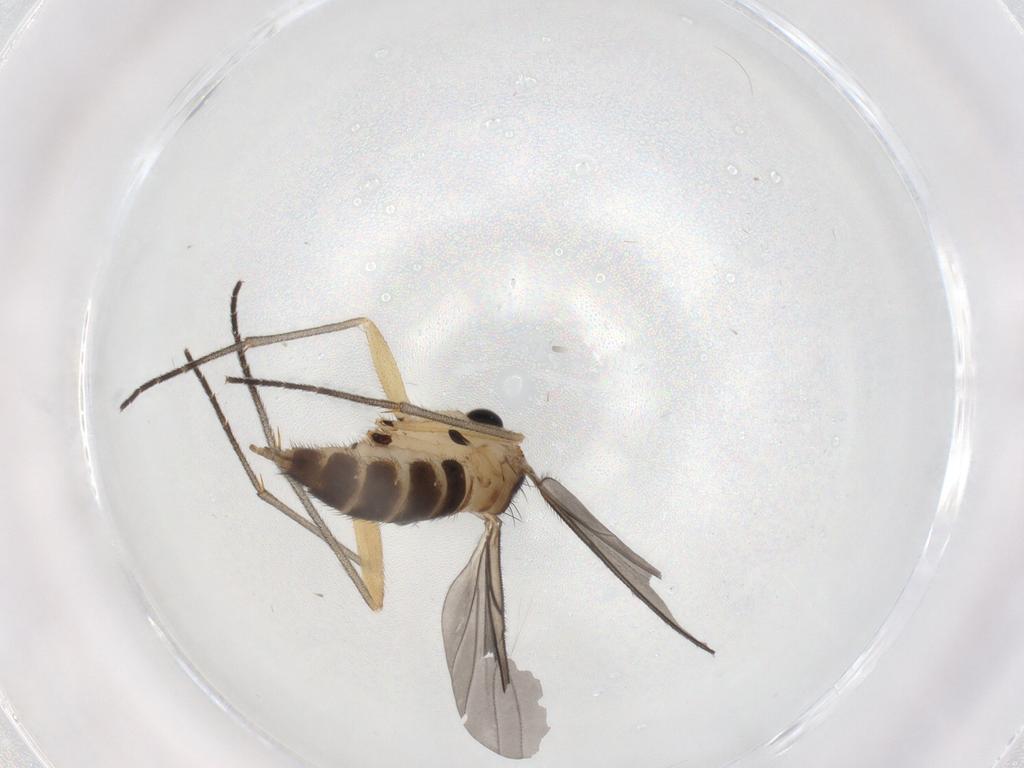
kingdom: Animalia
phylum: Arthropoda
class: Insecta
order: Diptera
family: Sciaridae
